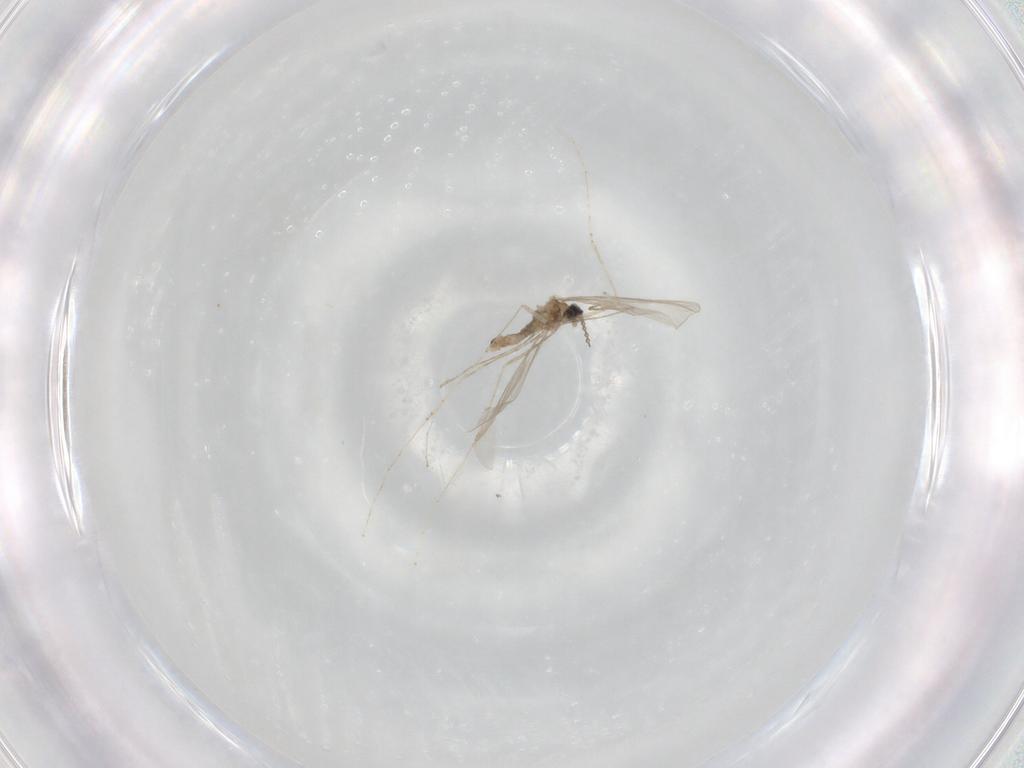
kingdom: Animalia
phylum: Arthropoda
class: Insecta
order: Diptera
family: Cecidomyiidae
